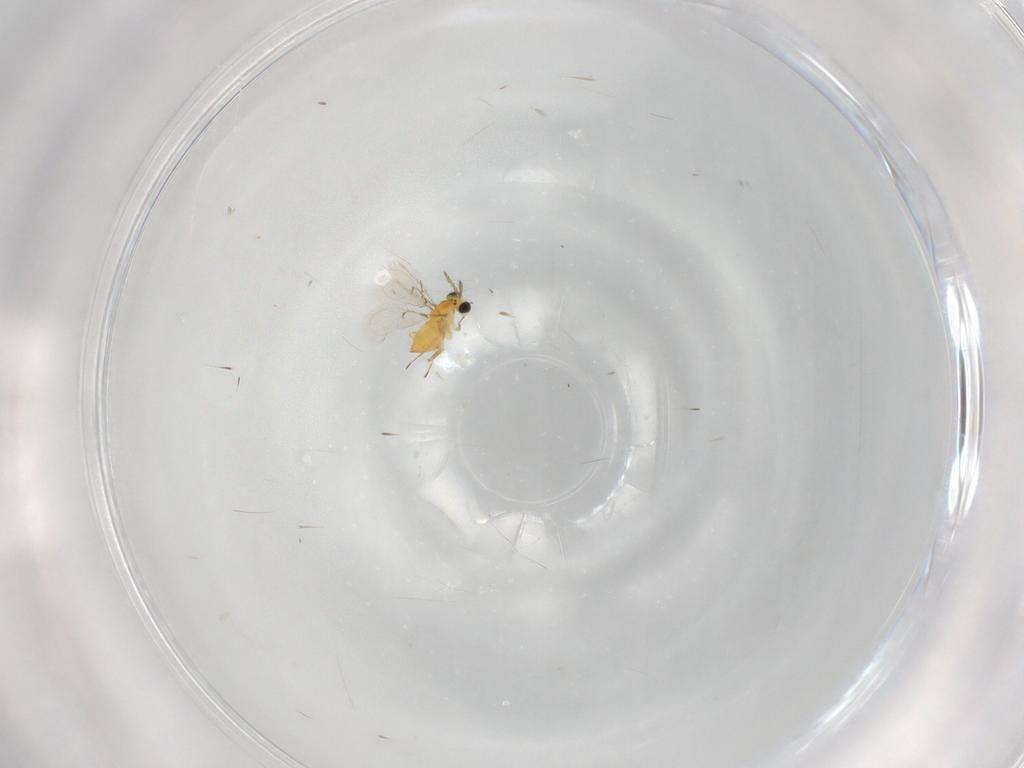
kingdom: Animalia
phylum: Arthropoda
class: Insecta
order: Hymenoptera
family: Trichogrammatidae
